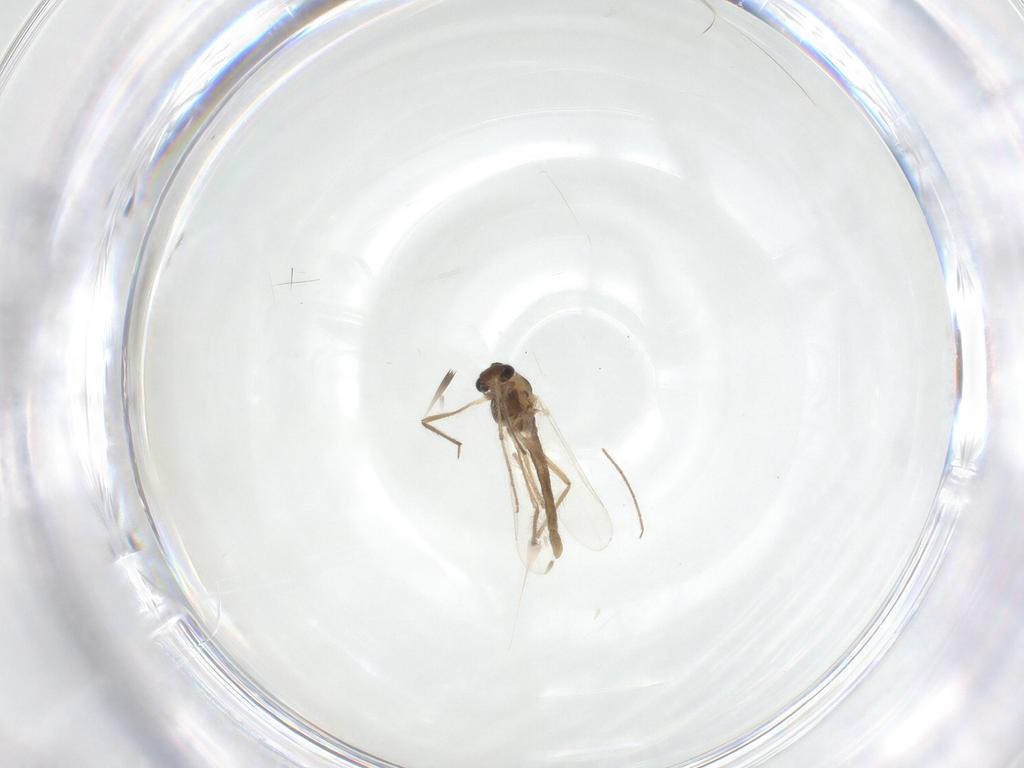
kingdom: Animalia
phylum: Arthropoda
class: Insecta
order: Diptera
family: Chironomidae
